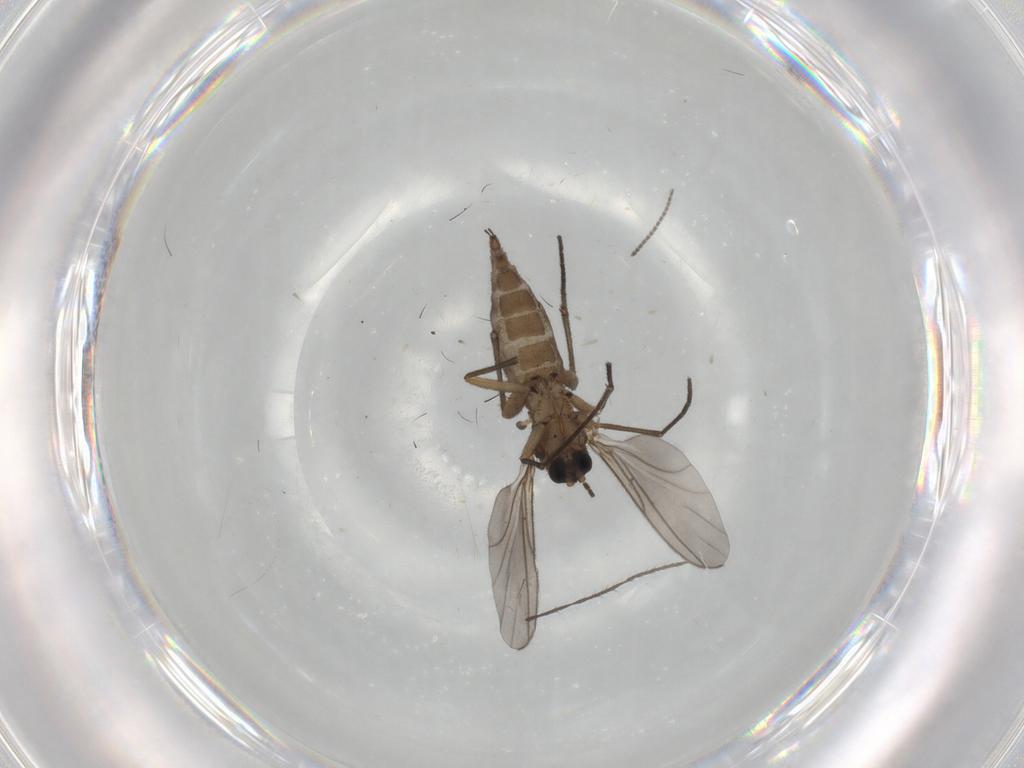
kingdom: Animalia
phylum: Arthropoda
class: Insecta
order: Diptera
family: Sciaridae
